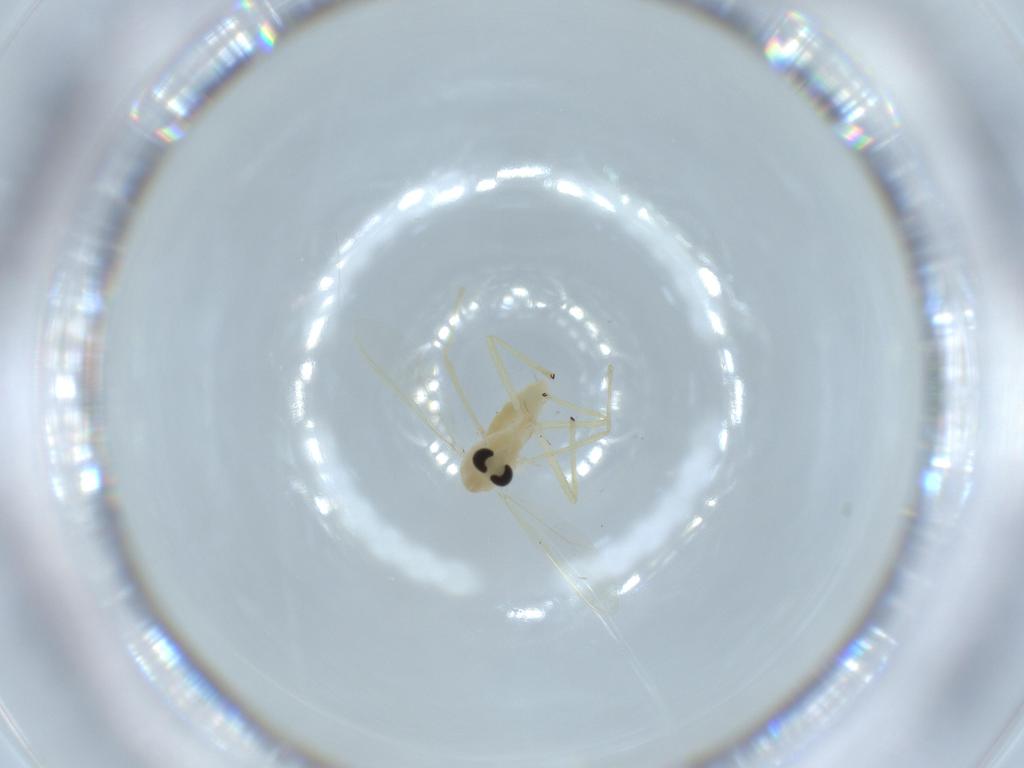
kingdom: Animalia
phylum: Arthropoda
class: Insecta
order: Diptera
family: Chironomidae
